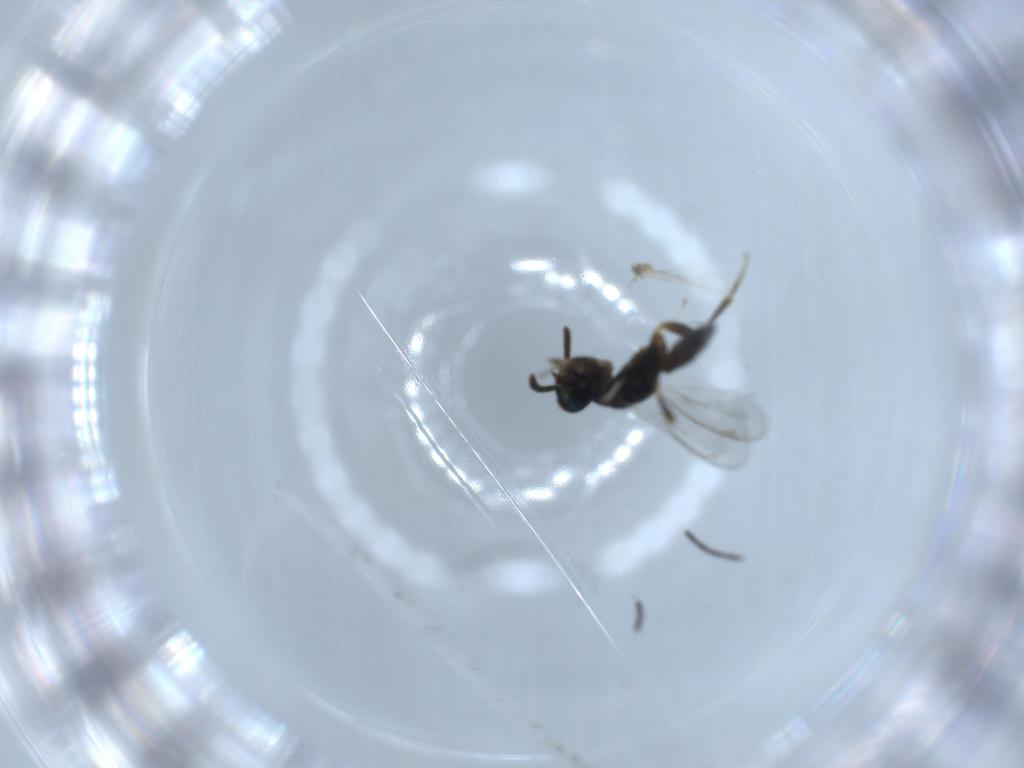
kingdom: Animalia
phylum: Arthropoda
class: Insecta
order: Hymenoptera
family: Cleonyminae
